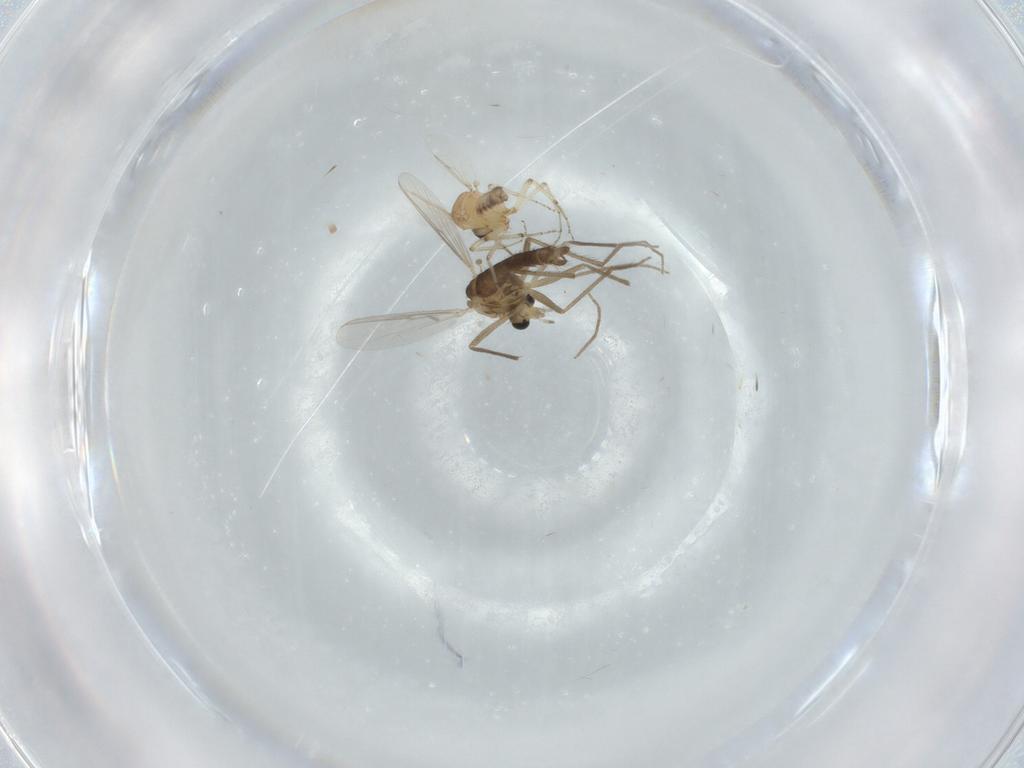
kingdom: Animalia
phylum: Arthropoda
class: Insecta
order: Diptera
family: Chironomidae
